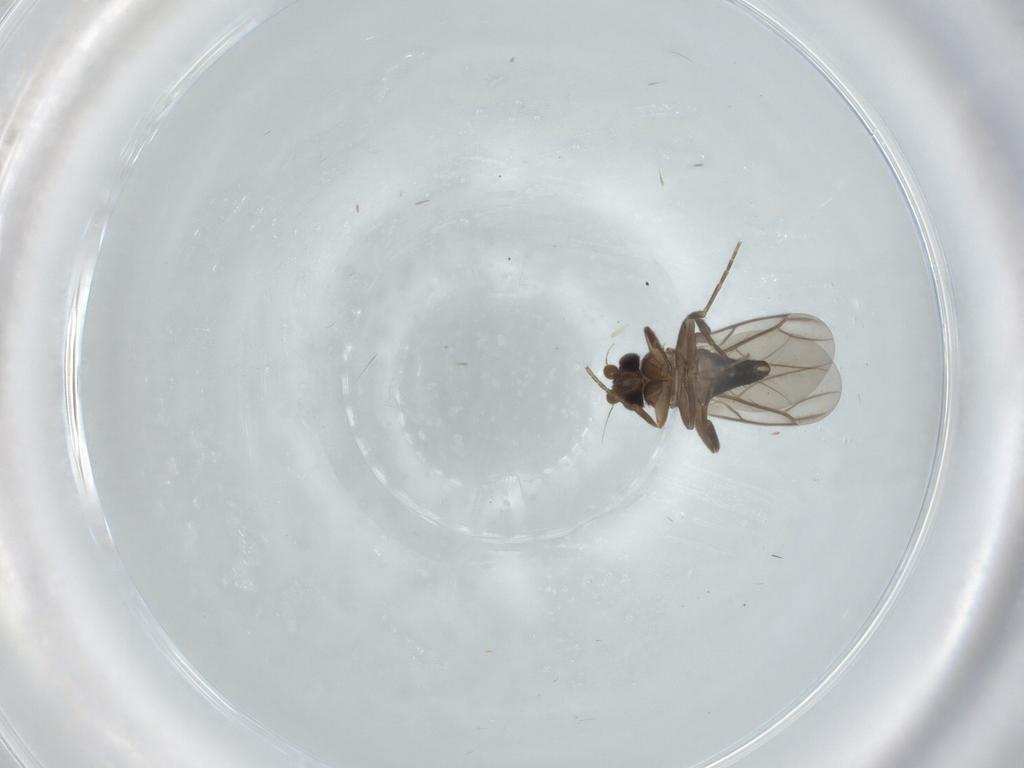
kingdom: Animalia
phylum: Arthropoda
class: Insecta
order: Diptera
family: Phoridae
